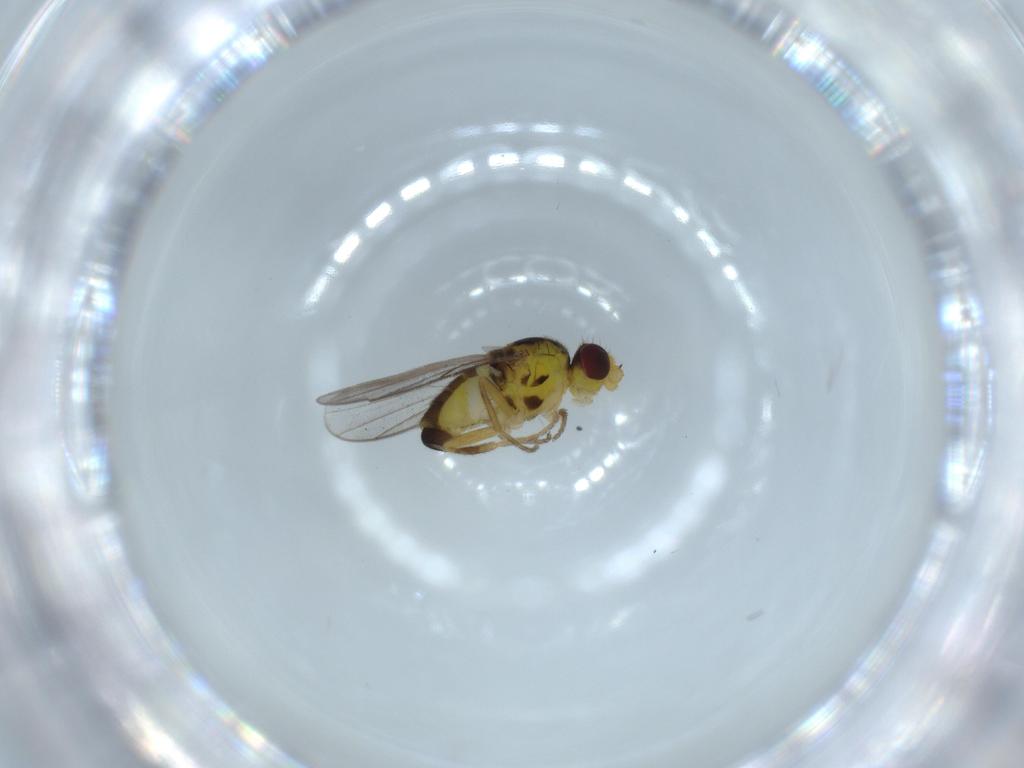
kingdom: Animalia
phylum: Arthropoda
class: Insecta
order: Diptera
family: Chloropidae
